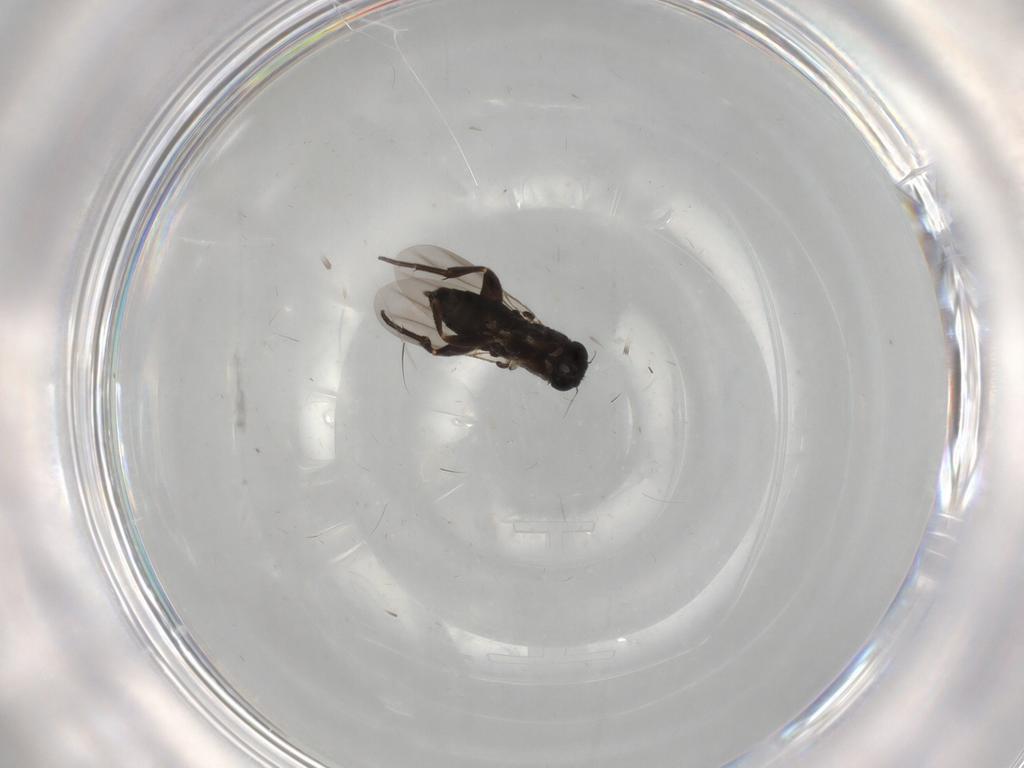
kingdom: Animalia
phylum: Arthropoda
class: Insecta
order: Diptera
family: Phoridae
